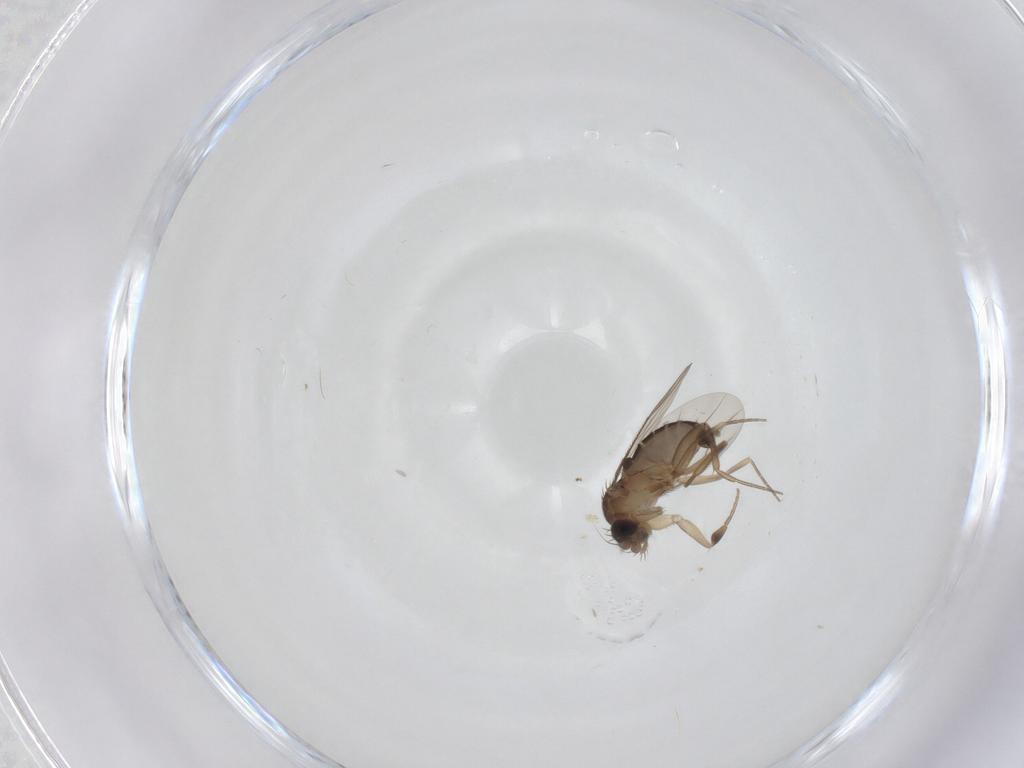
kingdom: Animalia
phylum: Arthropoda
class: Insecta
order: Diptera
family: Phoridae
